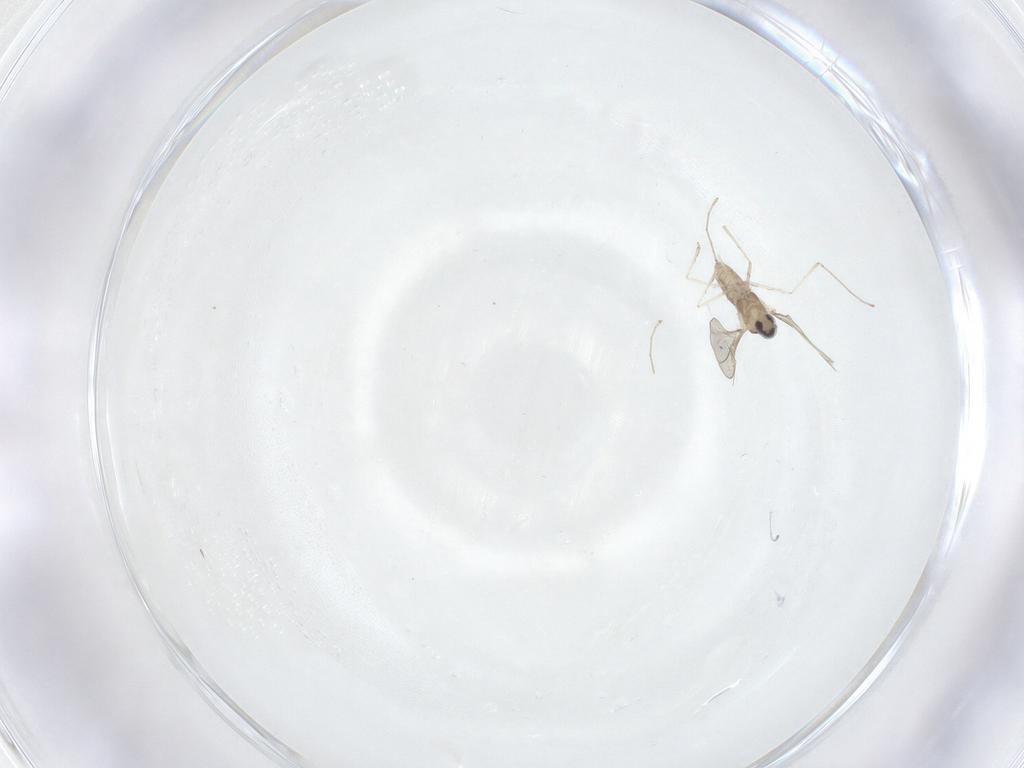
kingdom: Animalia
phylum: Arthropoda
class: Insecta
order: Diptera
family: Cecidomyiidae
